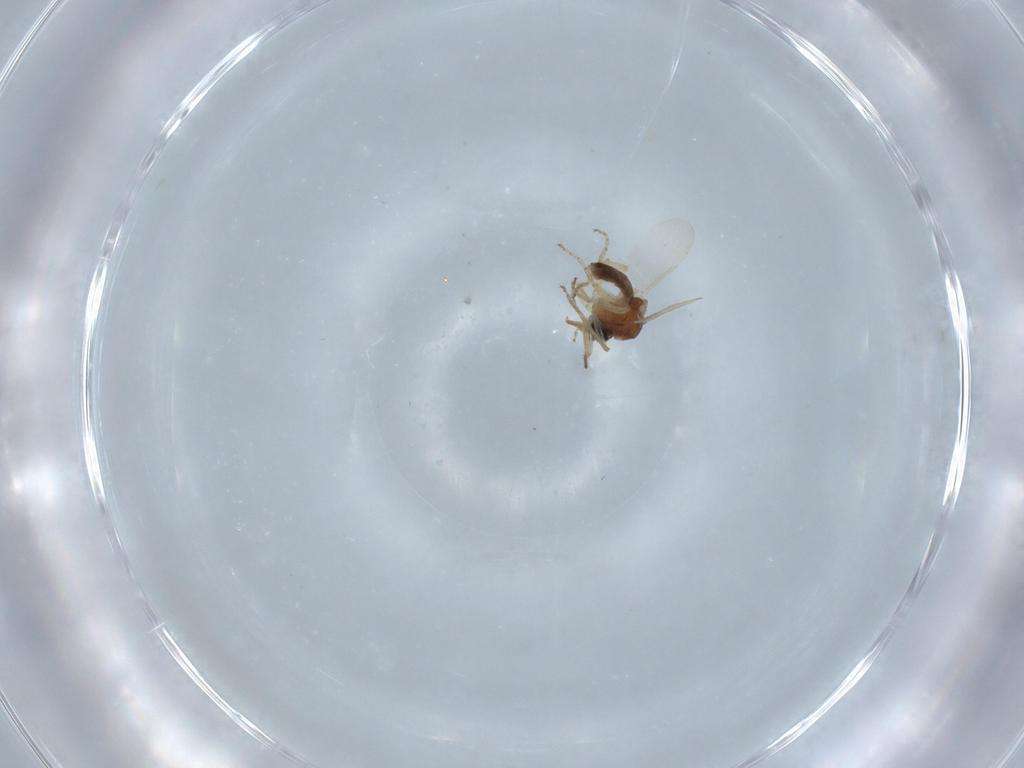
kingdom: Animalia
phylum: Arthropoda
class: Insecta
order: Diptera
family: Ceratopogonidae
